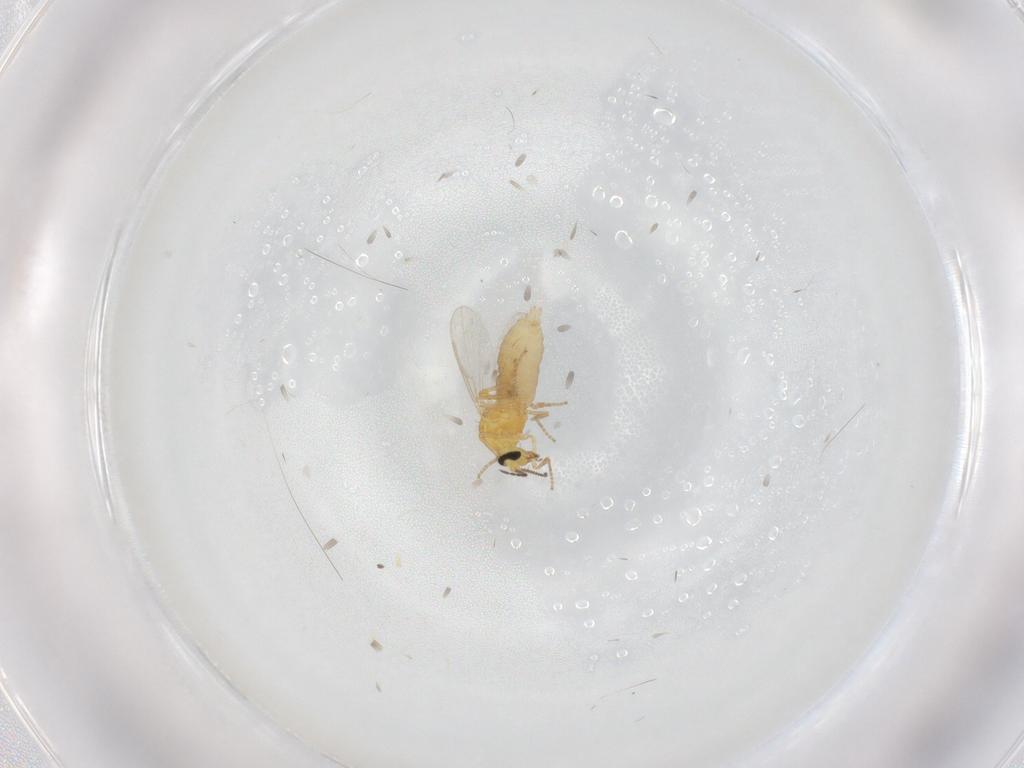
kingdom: Animalia
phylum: Arthropoda
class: Insecta
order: Diptera
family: Ceratopogonidae
